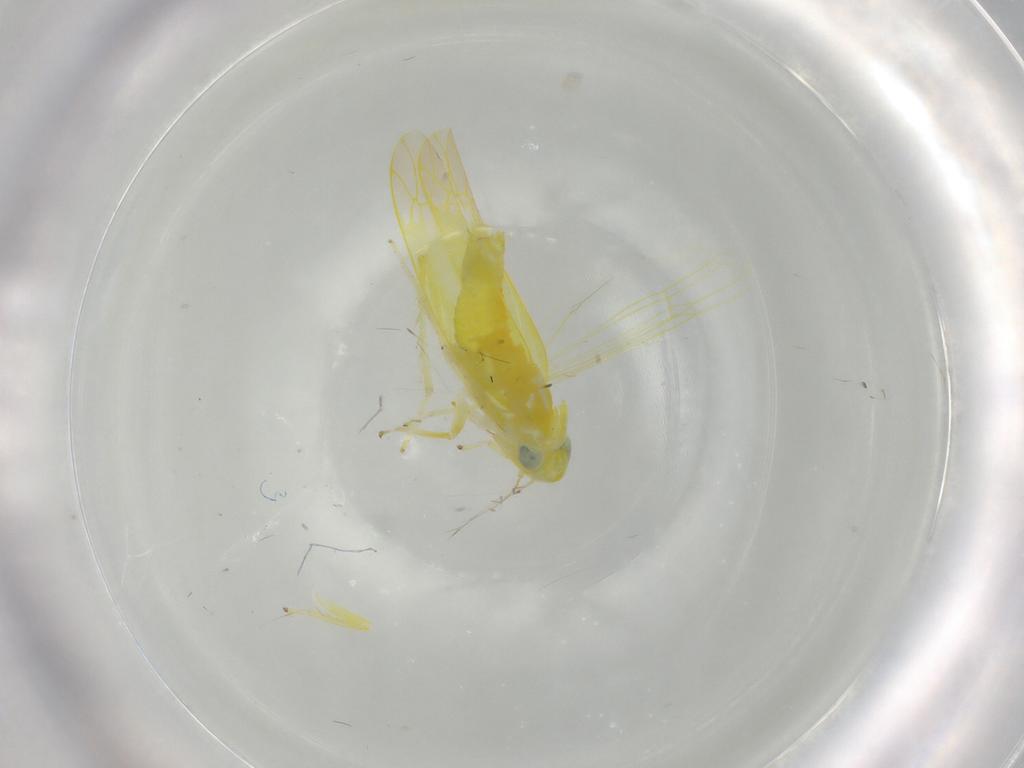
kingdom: Animalia
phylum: Arthropoda
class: Insecta
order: Hemiptera
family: Cicadellidae
